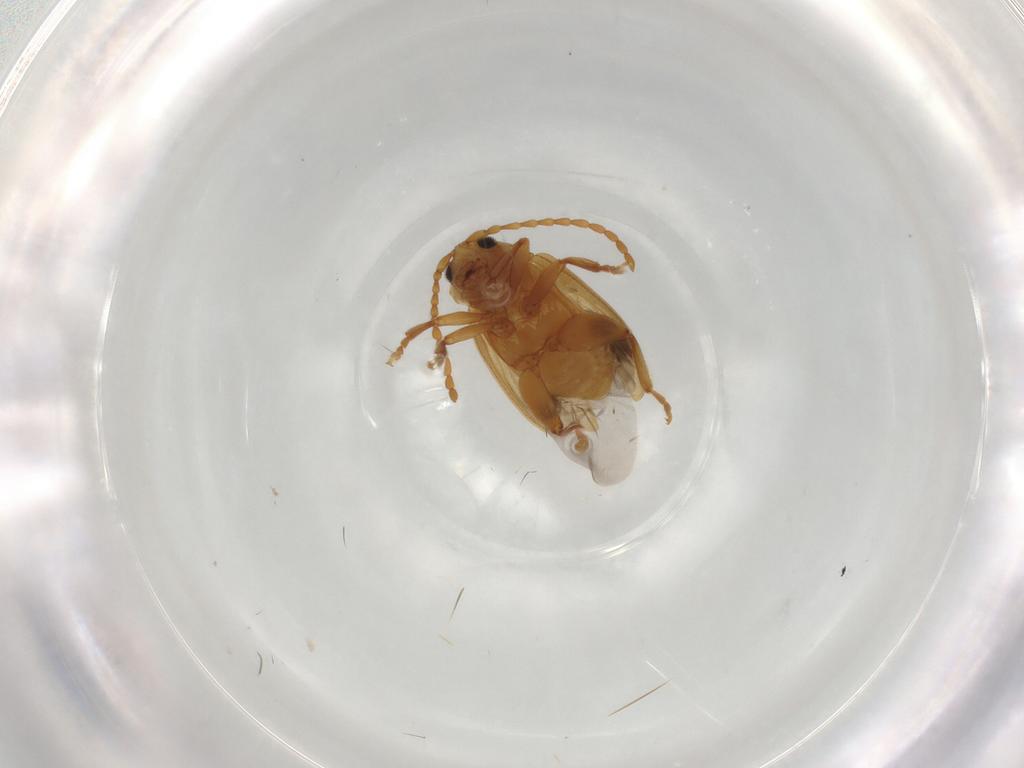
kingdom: Animalia
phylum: Arthropoda
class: Insecta
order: Coleoptera
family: Chrysomelidae
